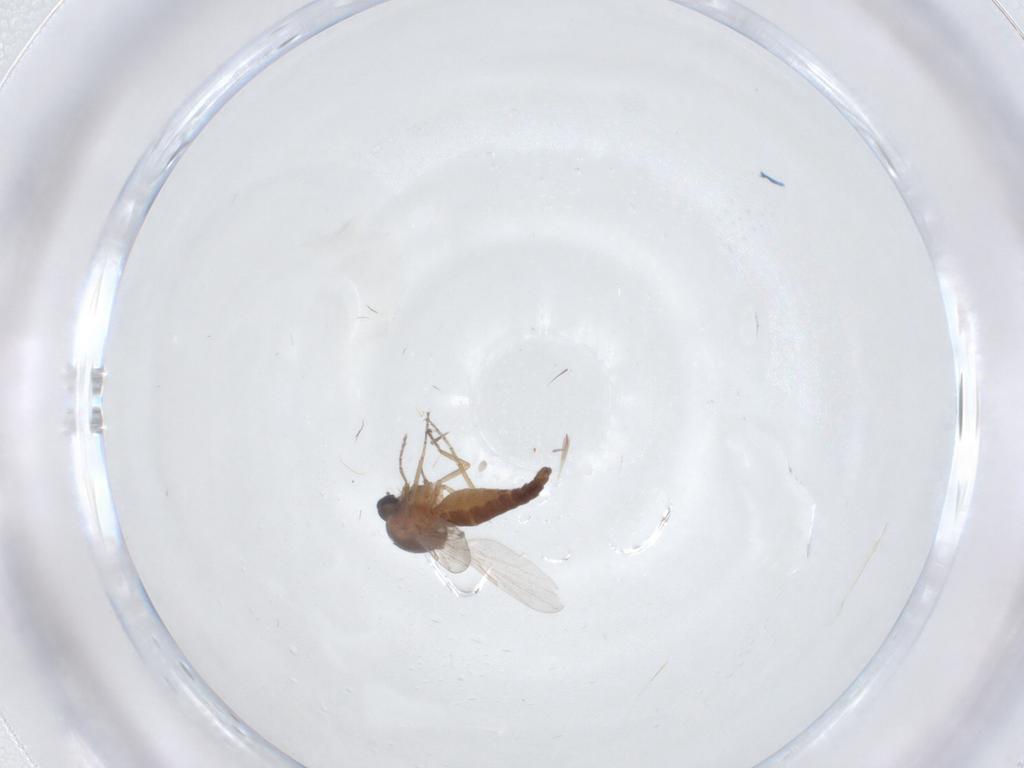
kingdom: Animalia
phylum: Arthropoda
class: Insecta
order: Diptera
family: Ceratopogonidae
